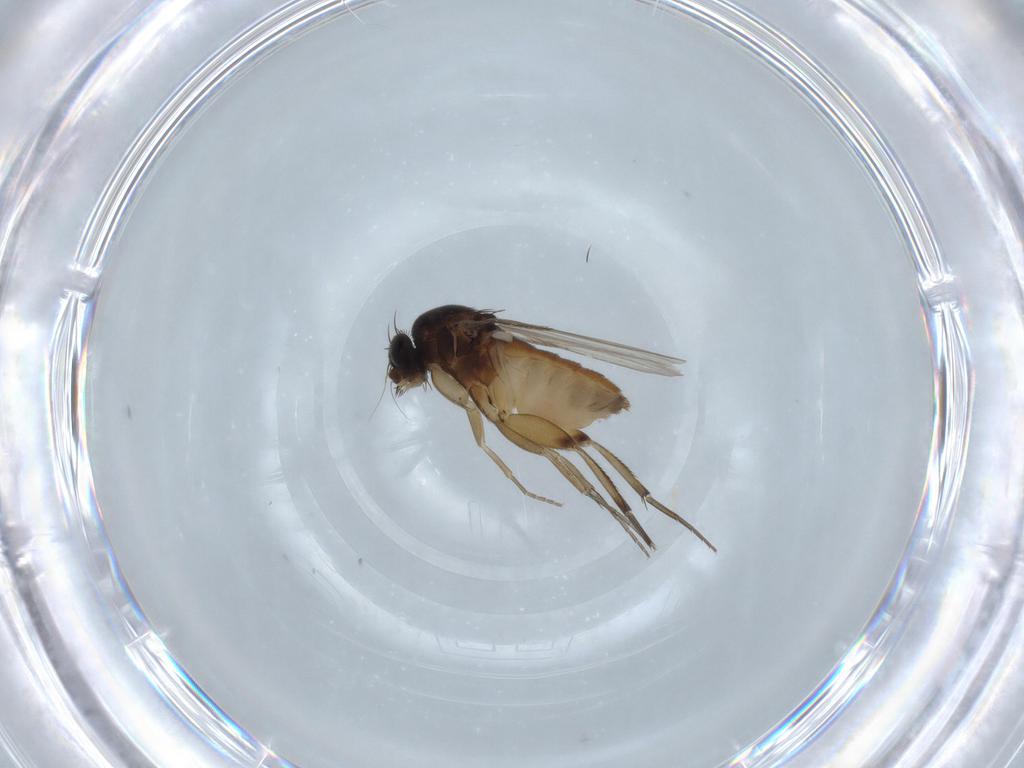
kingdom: Animalia
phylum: Arthropoda
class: Insecta
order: Diptera
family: Phoridae
